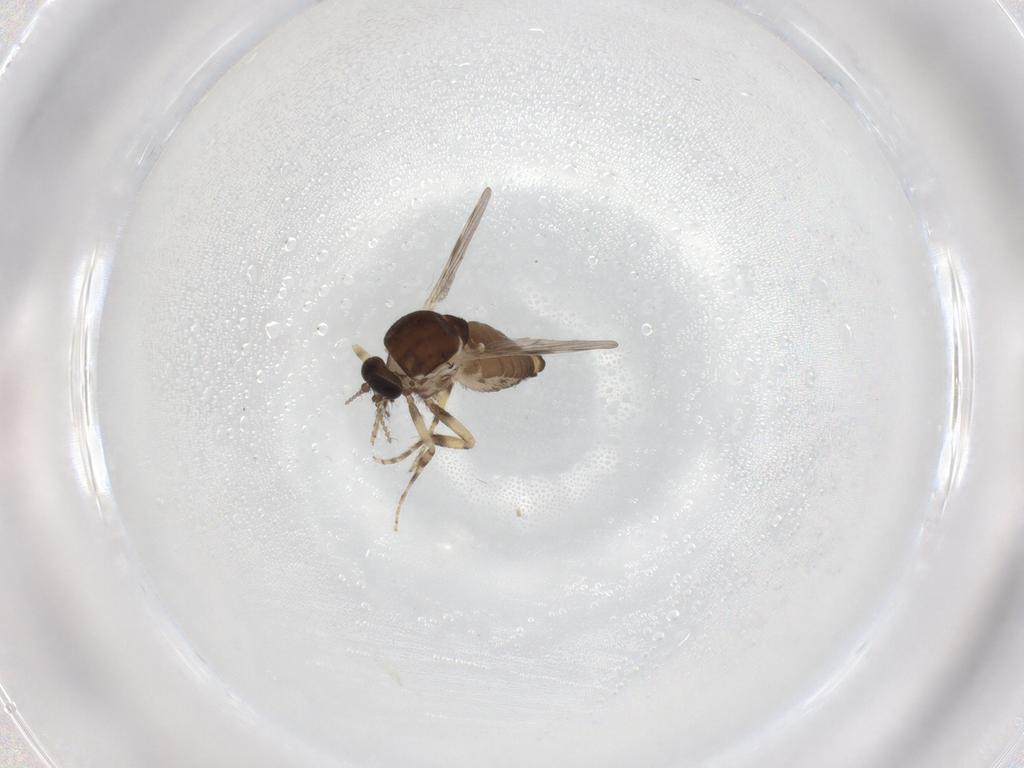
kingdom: Animalia
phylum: Arthropoda
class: Insecta
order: Diptera
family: Ceratopogonidae
